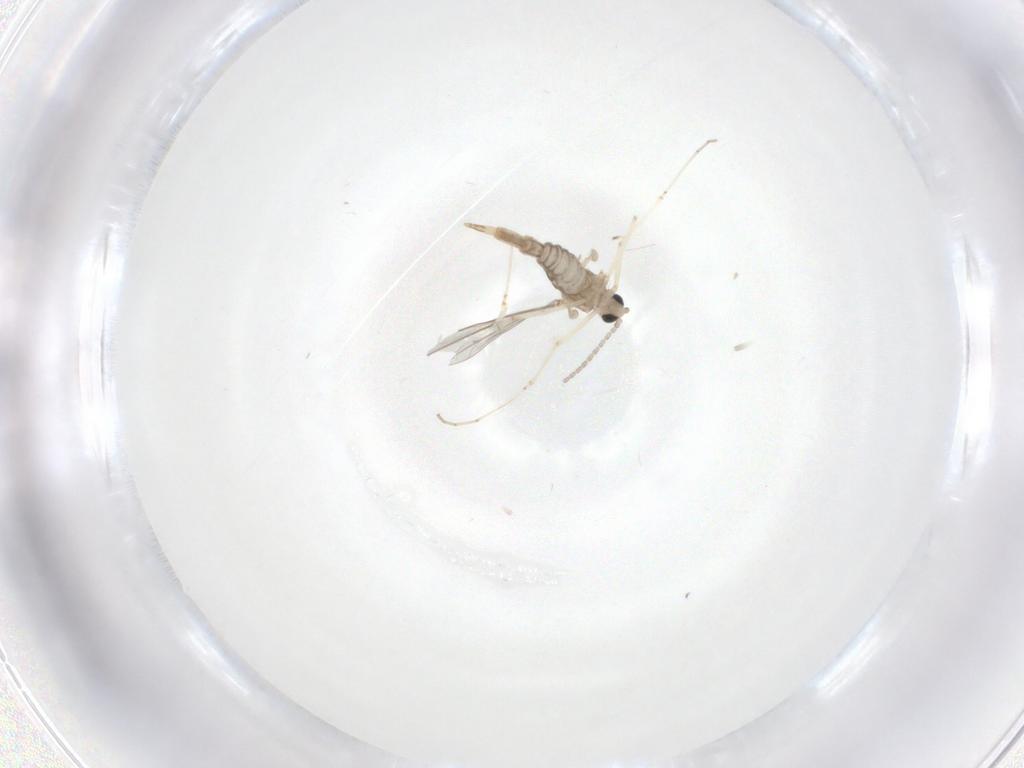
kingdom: Animalia
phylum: Arthropoda
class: Insecta
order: Diptera
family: Cecidomyiidae
